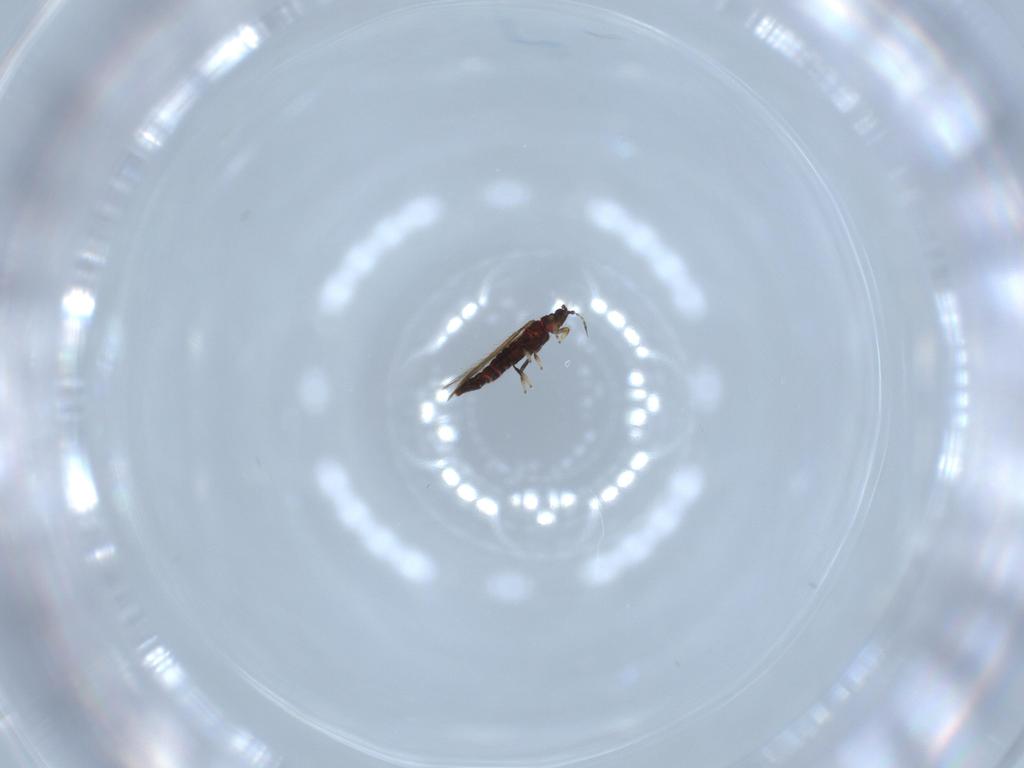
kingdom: Animalia
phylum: Arthropoda
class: Insecta
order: Thysanoptera
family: Thripidae
